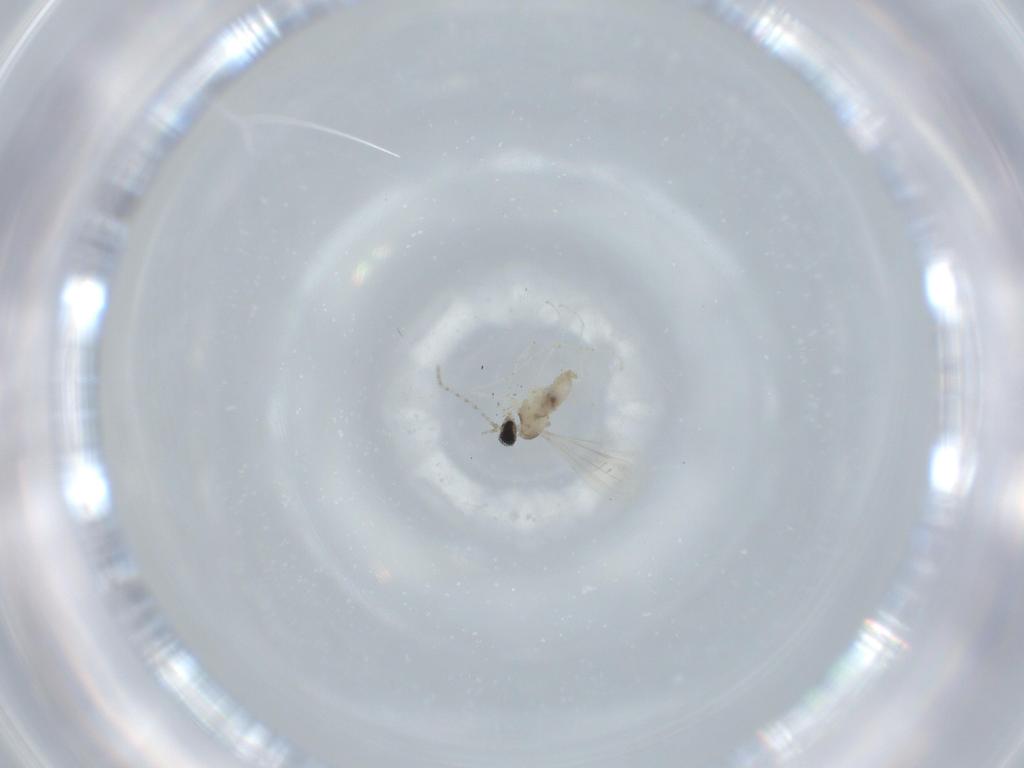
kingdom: Animalia
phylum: Arthropoda
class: Insecta
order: Diptera
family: Cecidomyiidae
